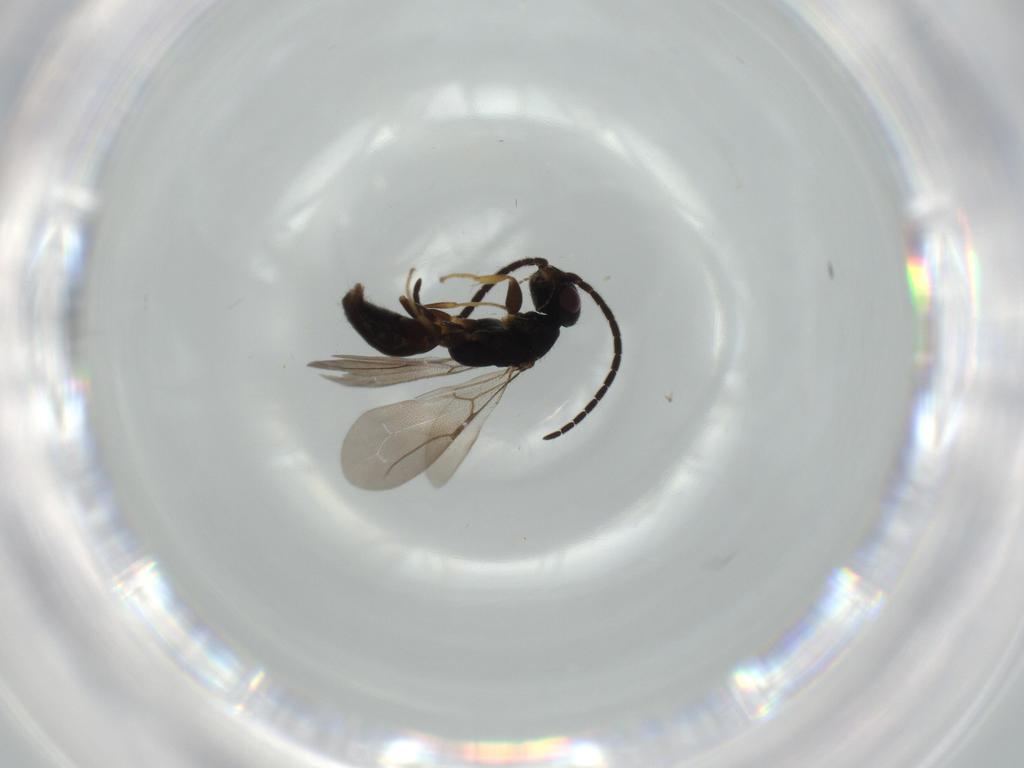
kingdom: Animalia
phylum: Arthropoda
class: Insecta
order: Hymenoptera
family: Bethylidae
